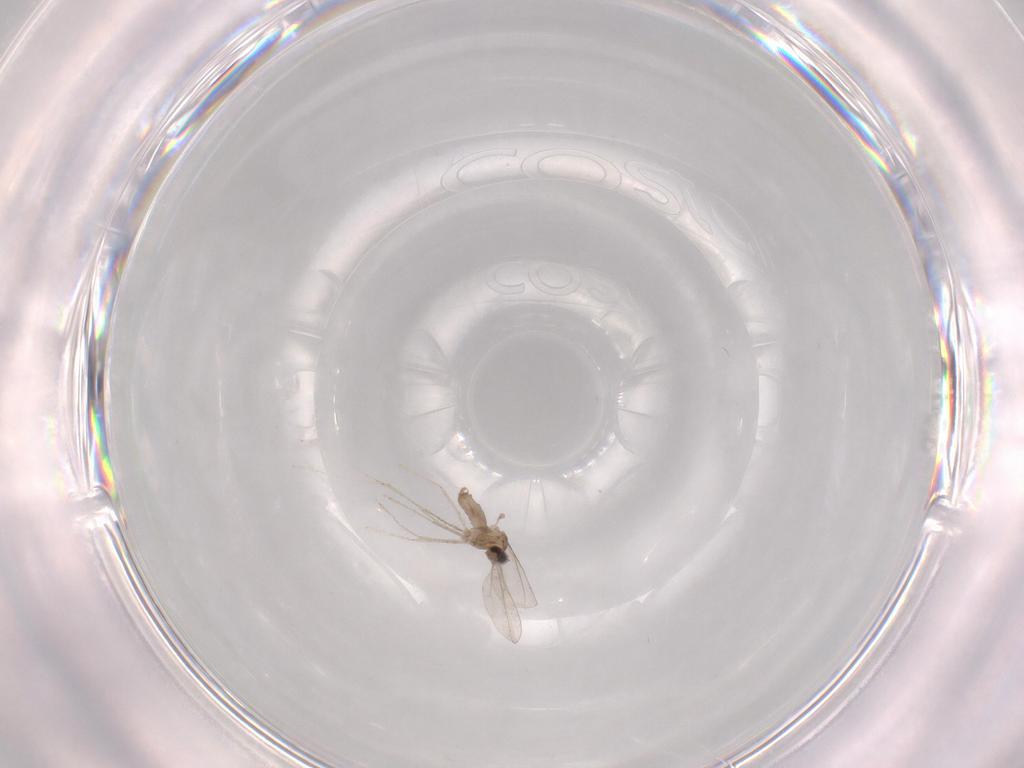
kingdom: Animalia
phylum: Arthropoda
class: Insecta
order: Diptera
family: Cecidomyiidae
